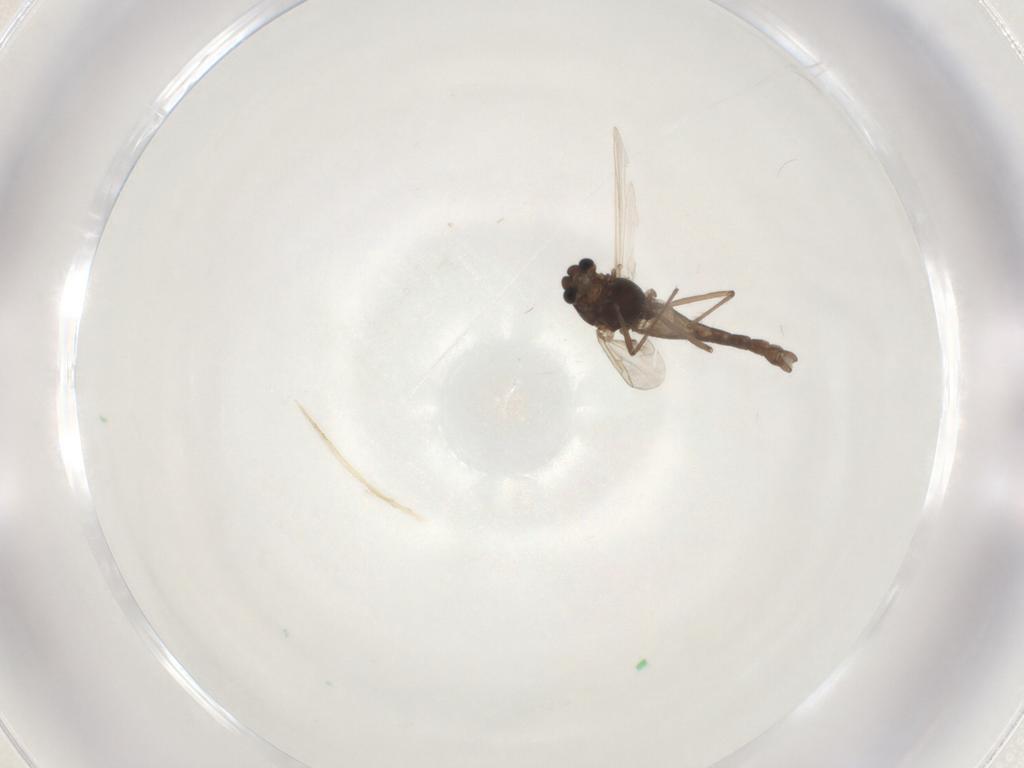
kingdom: Animalia
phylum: Arthropoda
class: Insecta
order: Diptera
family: Chironomidae
